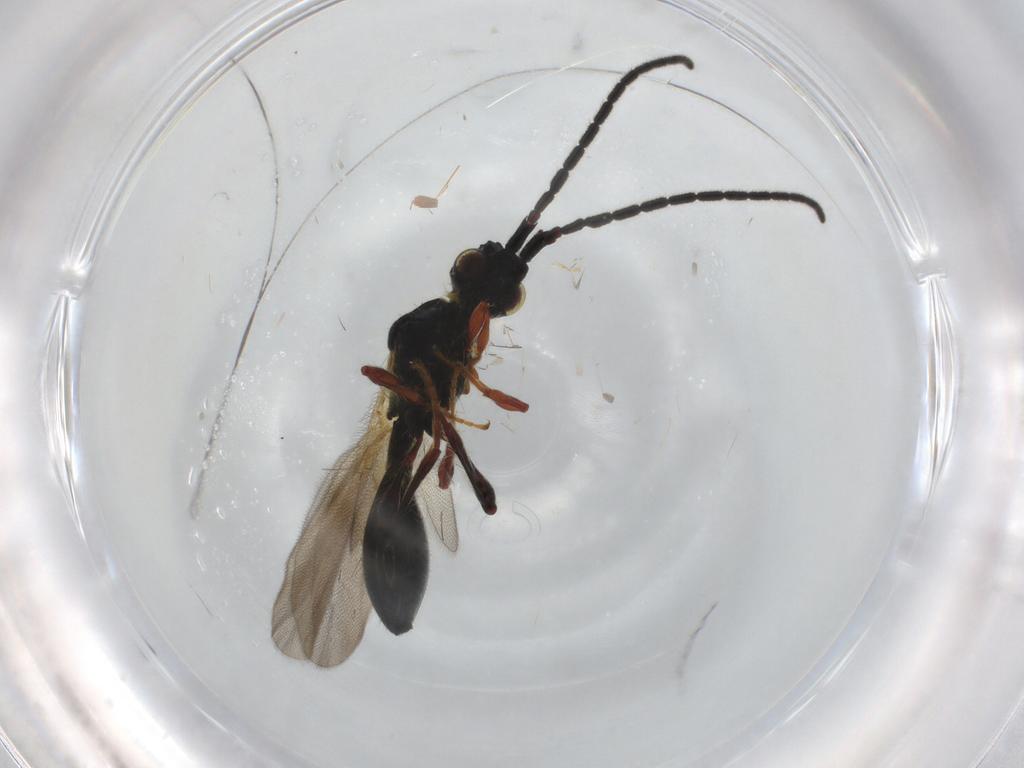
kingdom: Animalia
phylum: Arthropoda
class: Insecta
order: Hymenoptera
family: Diapriidae
